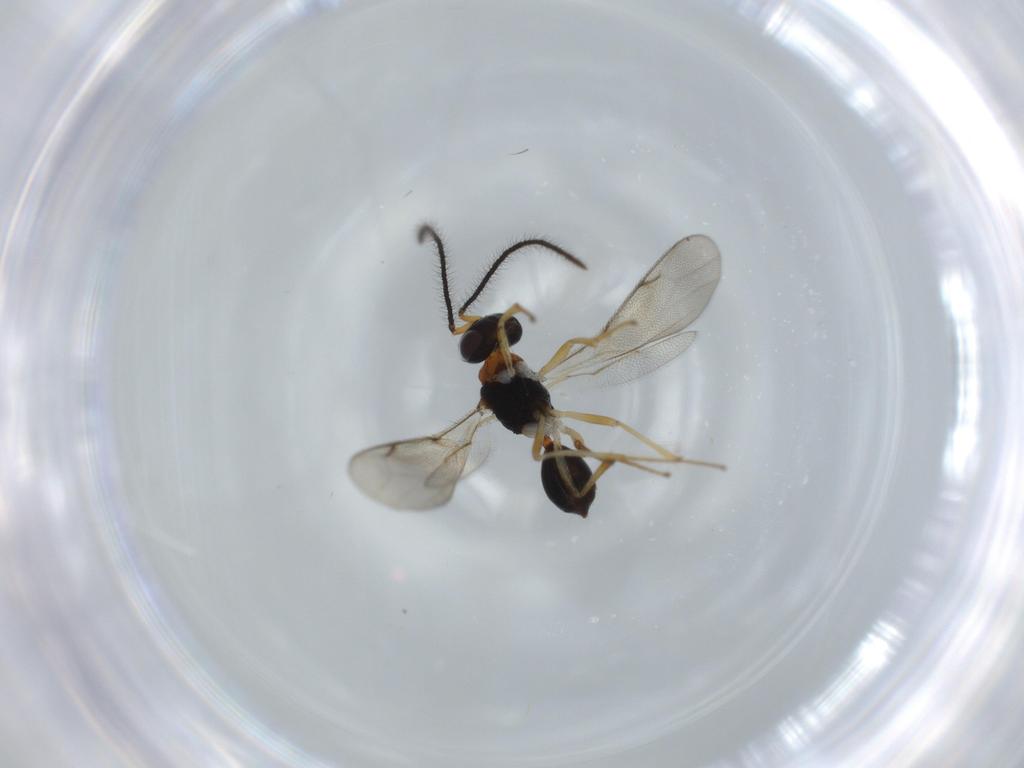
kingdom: Animalia
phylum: Arthropoda
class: Insecta
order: Hymenoptera
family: Diparidae
